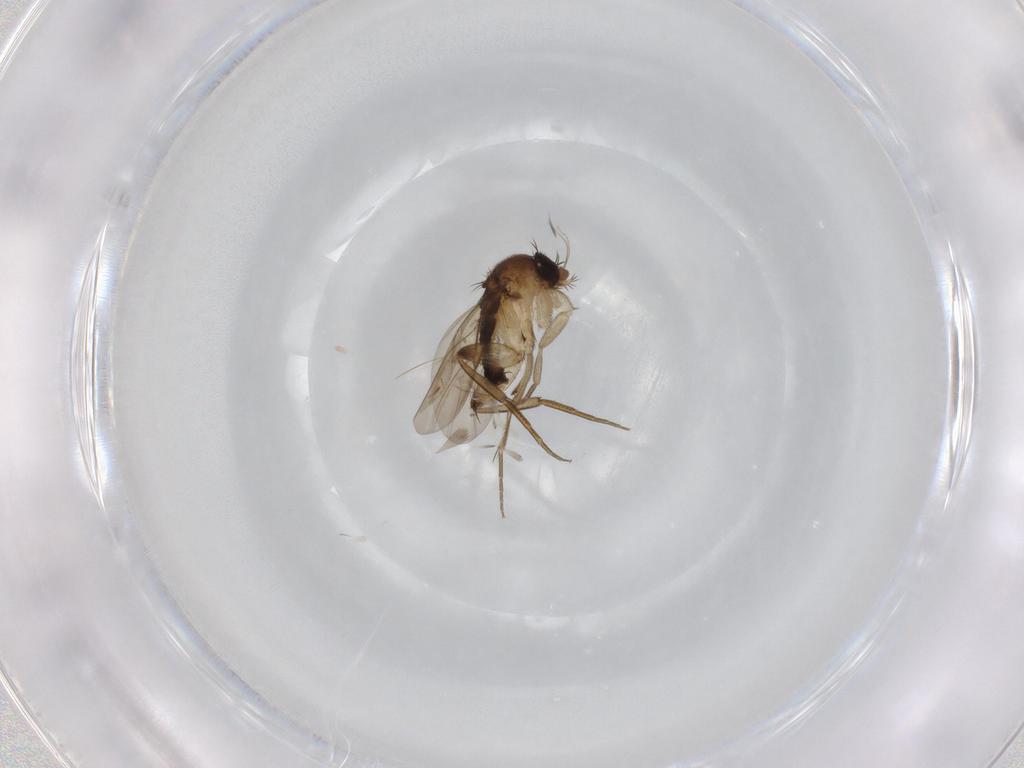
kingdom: Animalia
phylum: Arthropoda
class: Insecta
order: Diptera
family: Phoridae
